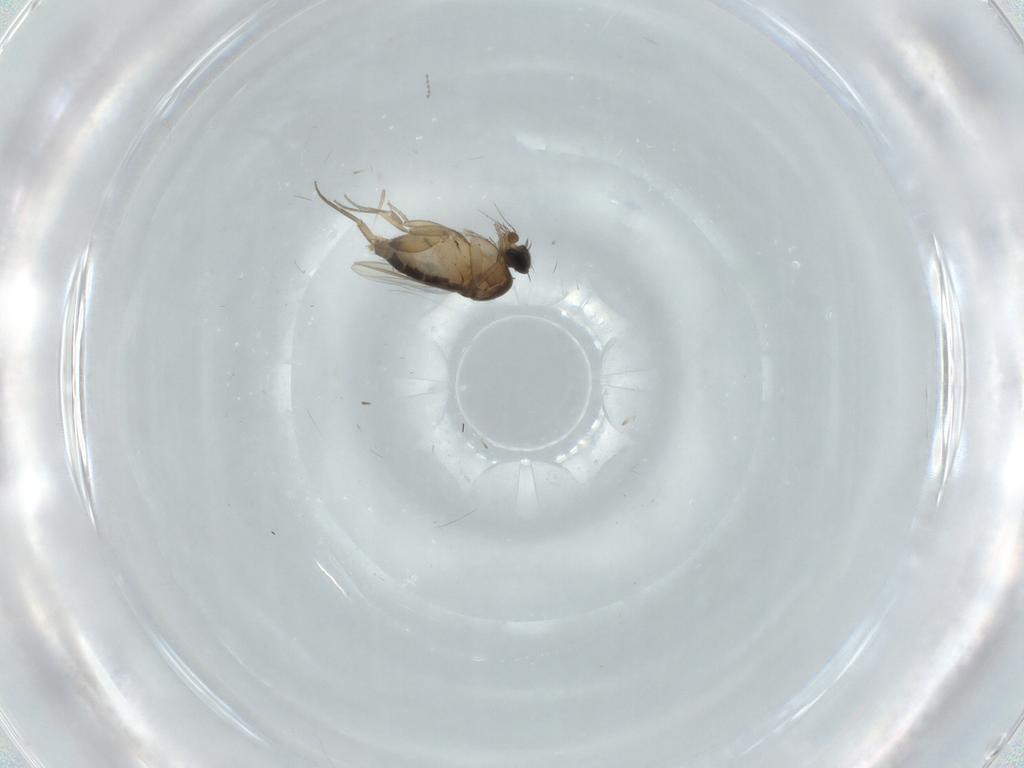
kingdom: Animalia
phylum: Arthropoda
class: Insecta
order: Diptera
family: Phoridae
